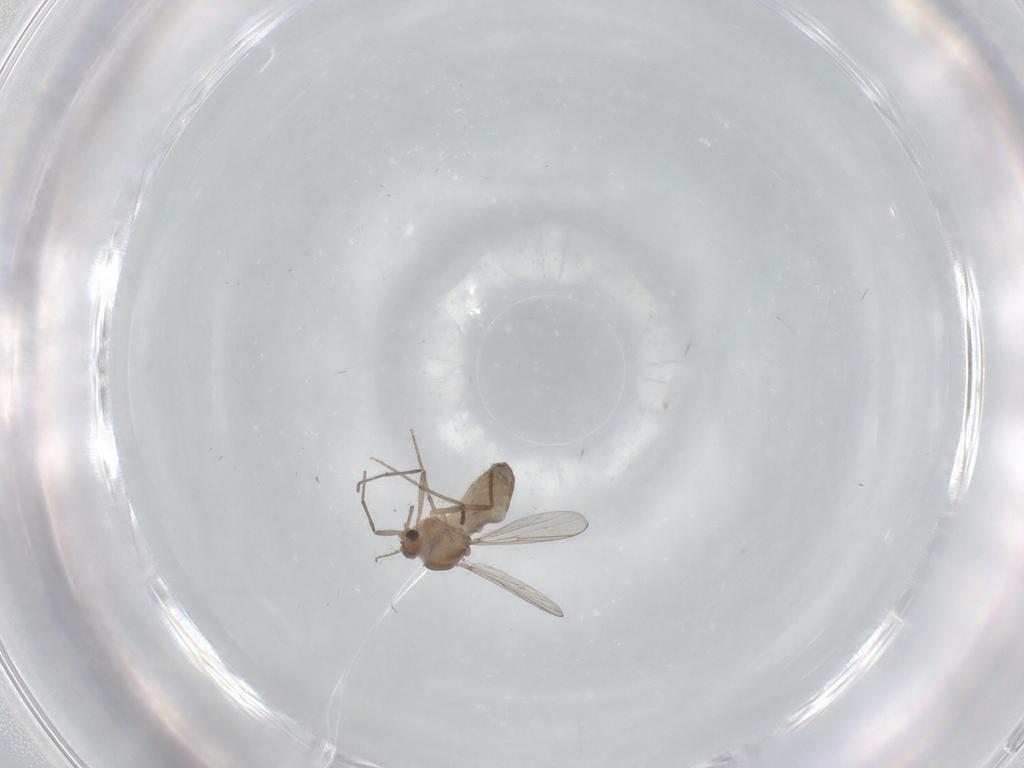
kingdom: Animalia
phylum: Arthropoda
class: Insecta
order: Diptera
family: Chironomidae
